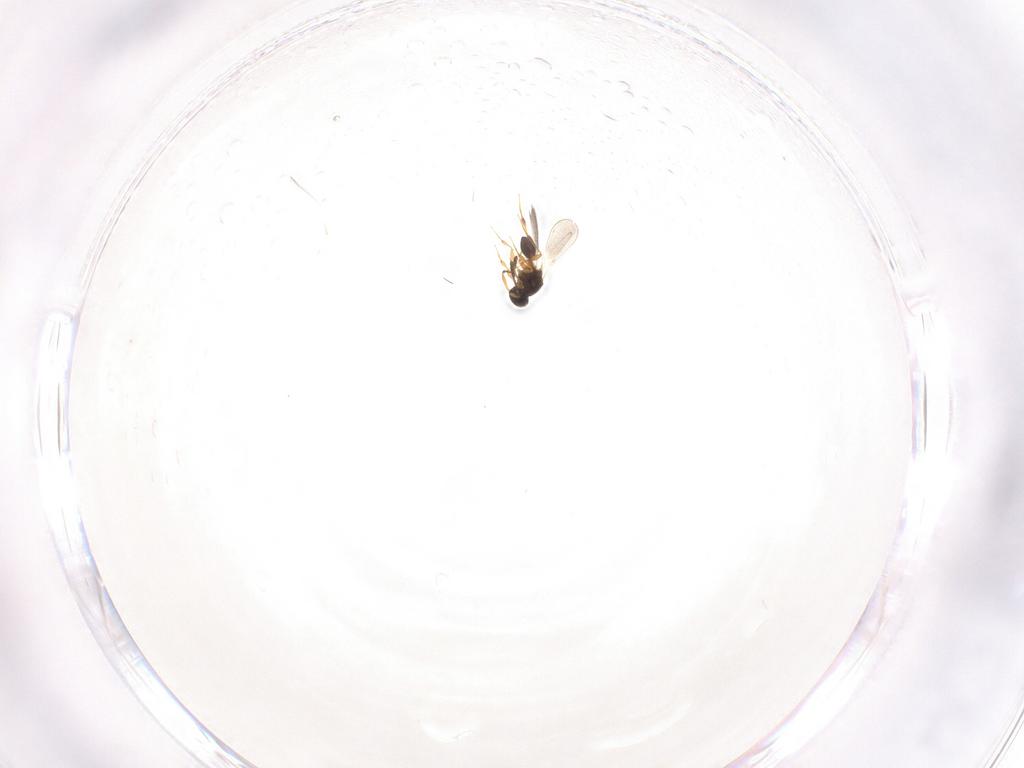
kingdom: Animalia
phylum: Arthropoda
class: Insecta
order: Hymenoptera
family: Platygastridae
